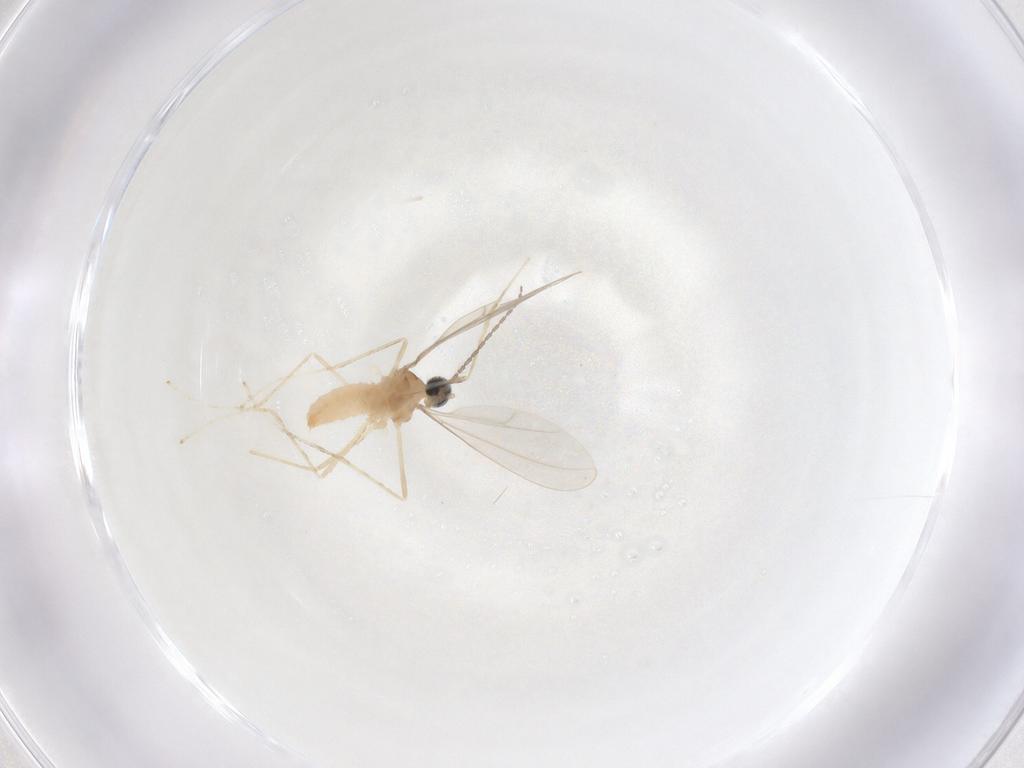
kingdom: Animalia
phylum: Arthropoda
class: Insecta
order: Diptera
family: Cecidomyiidae
